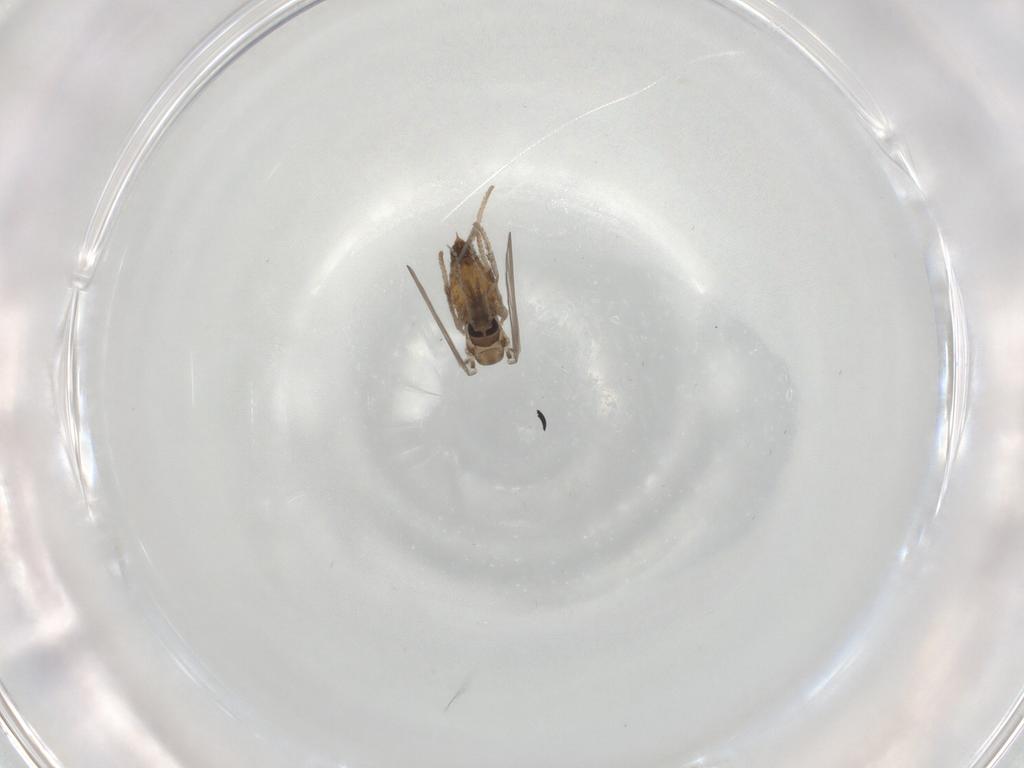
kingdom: Animalia
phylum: Arthropoda
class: Insecta
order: Diptera
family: Psychodidae
